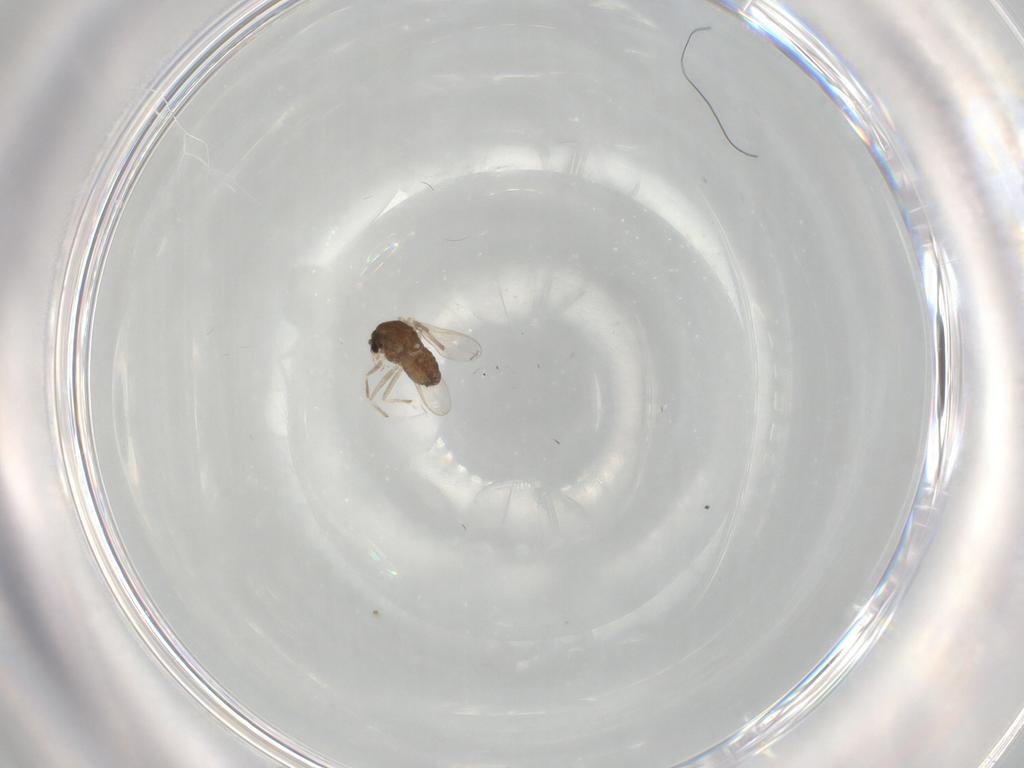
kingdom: Animalia
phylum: Arthropoda
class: Insecta
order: Diptera
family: Chironomidae
